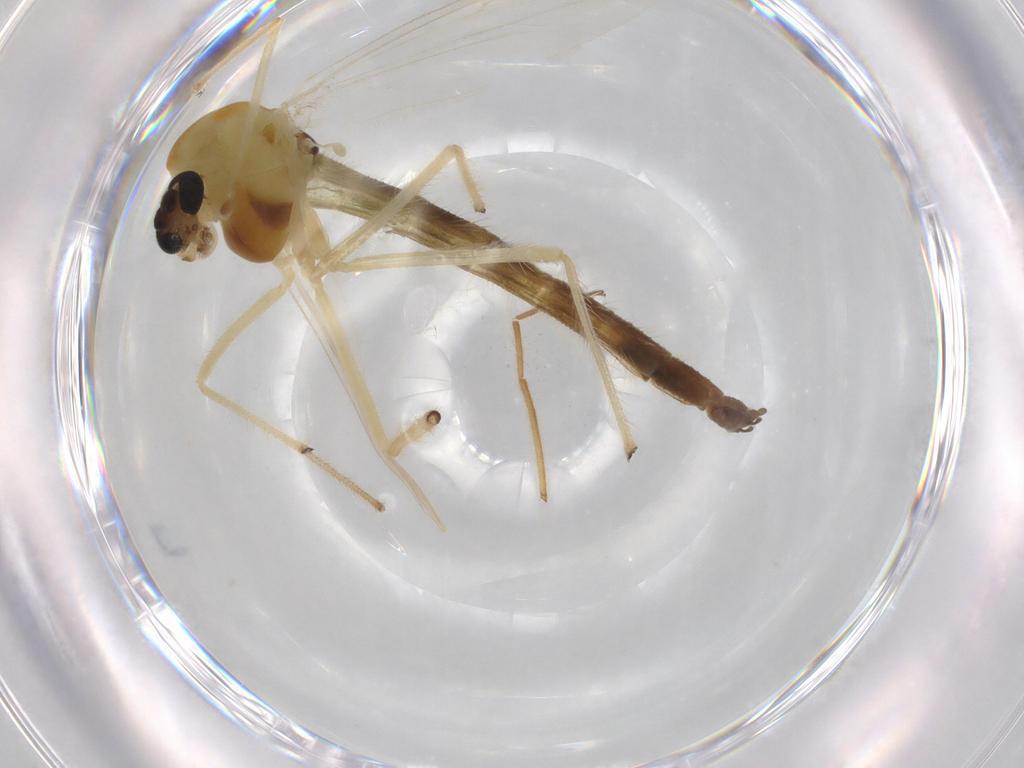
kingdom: Animalia
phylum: Arthropoda
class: Insecta
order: Diptera
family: Chironomidae
